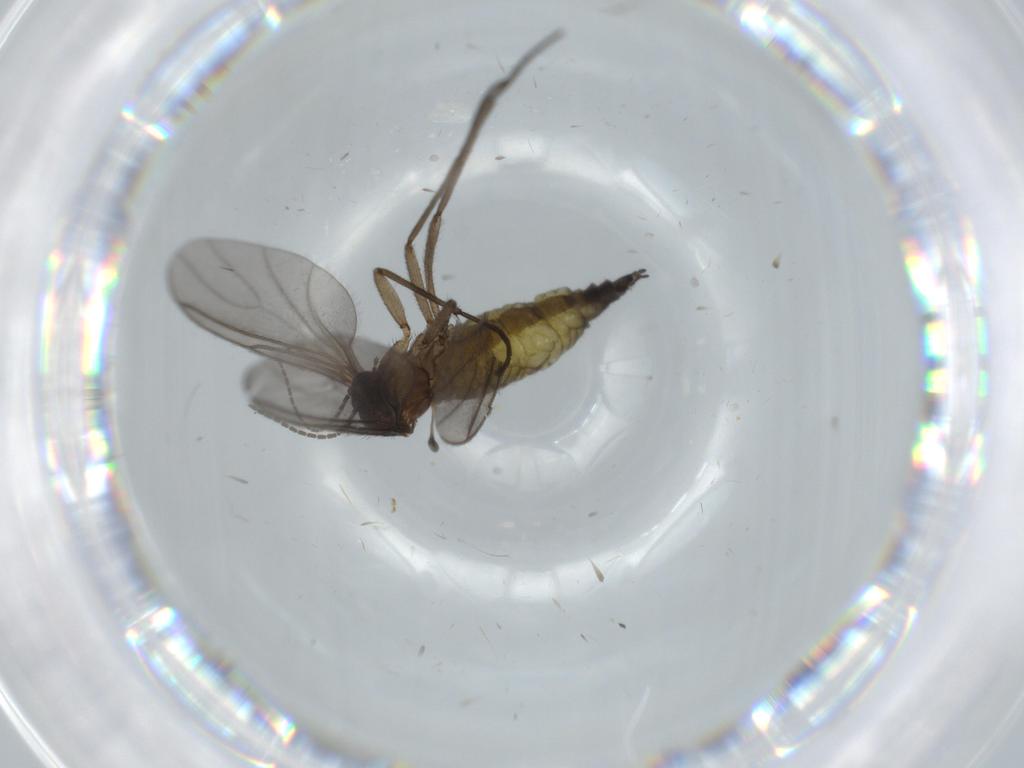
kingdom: Animalia
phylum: Arthropoda
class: Insecta
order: Diptera
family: Sciaridae
